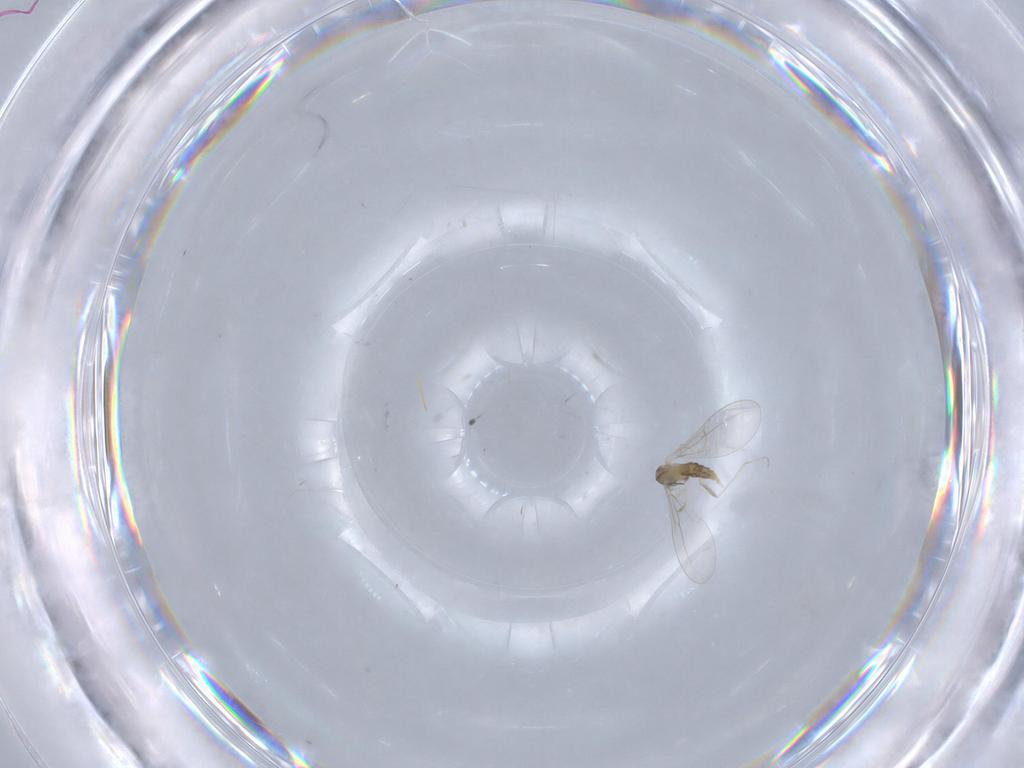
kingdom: Animalia
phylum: Arthropoda
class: Insecta
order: Diptera
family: Cecidomyiidae
